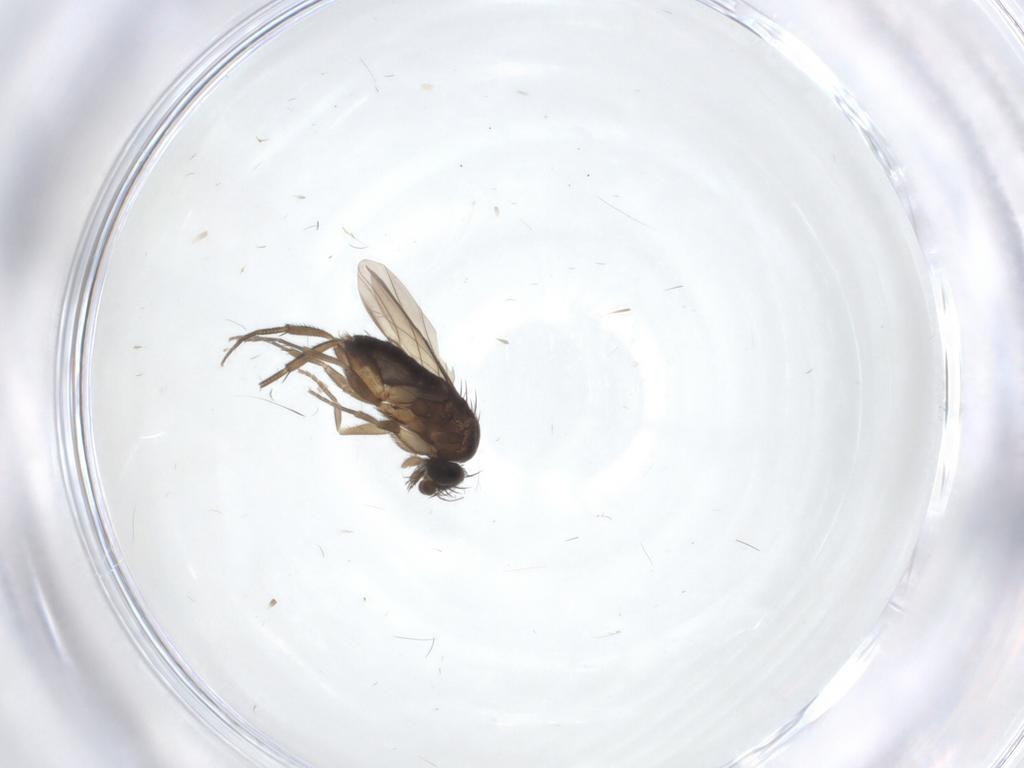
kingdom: Animalia
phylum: Arthropoda
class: Insecta
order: Diptera
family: Phoridae
